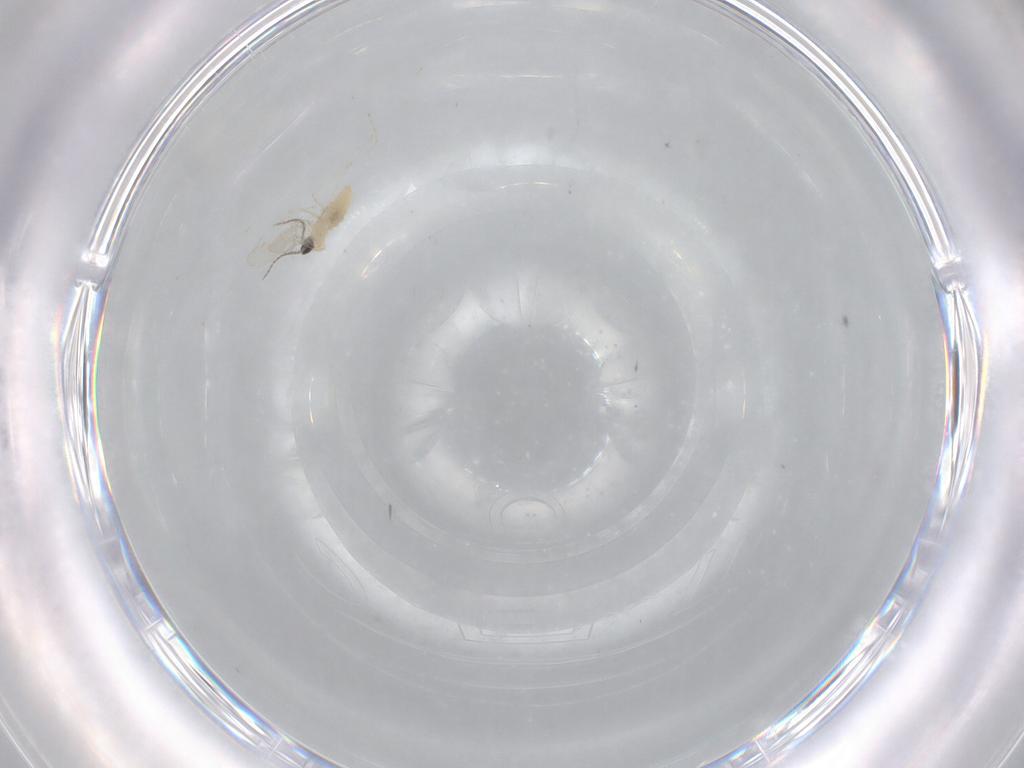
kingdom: Animalia
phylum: Arthropoda
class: Insecta
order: Diptera
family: Cecidomyiidae
